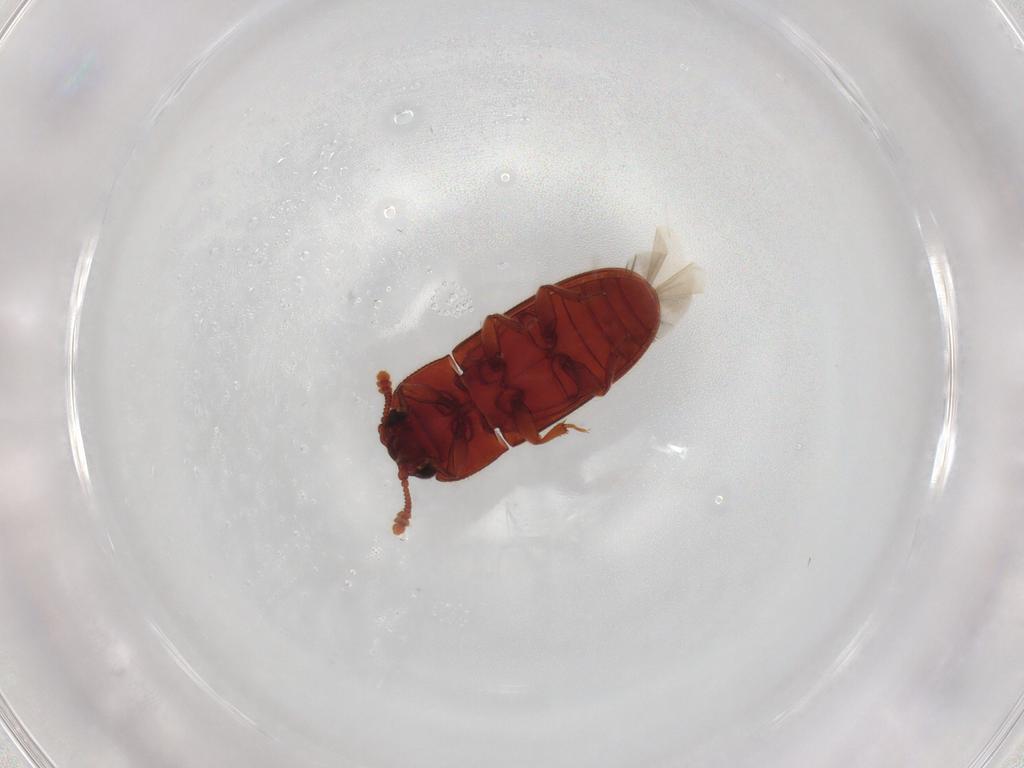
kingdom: Animalia
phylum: Arthropoda
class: Insecta
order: Coleoptera
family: Biphyllidae
